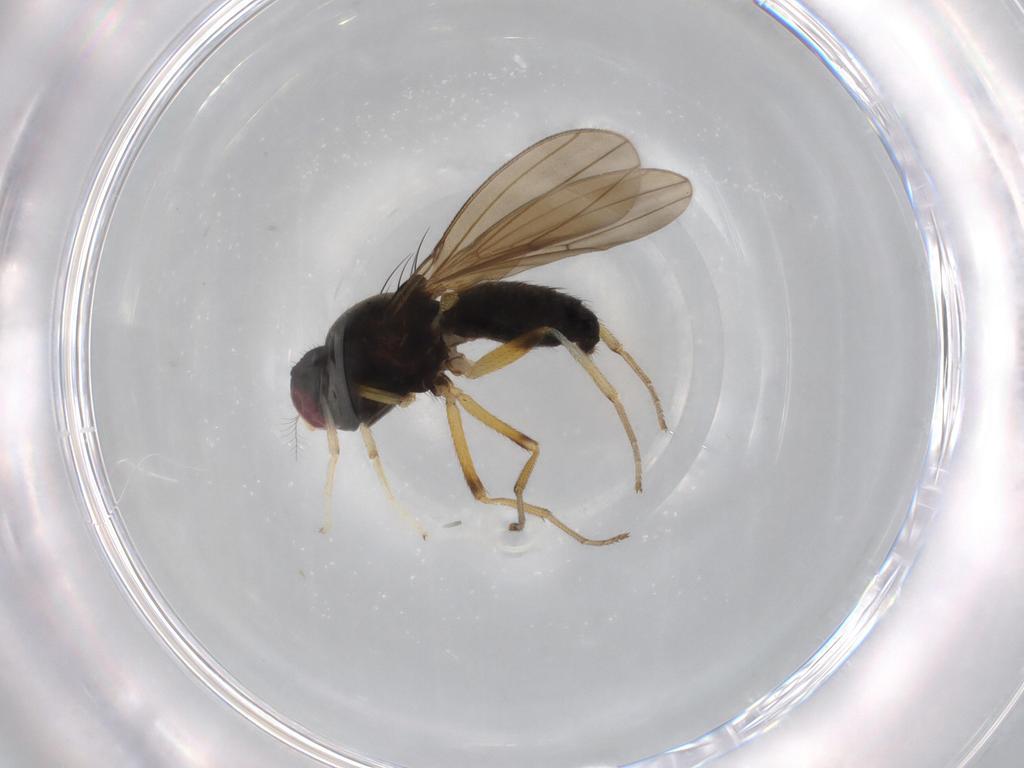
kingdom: Animalia
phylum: Arthropoda
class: Insecta
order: Diptera
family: Lauxaniidae
